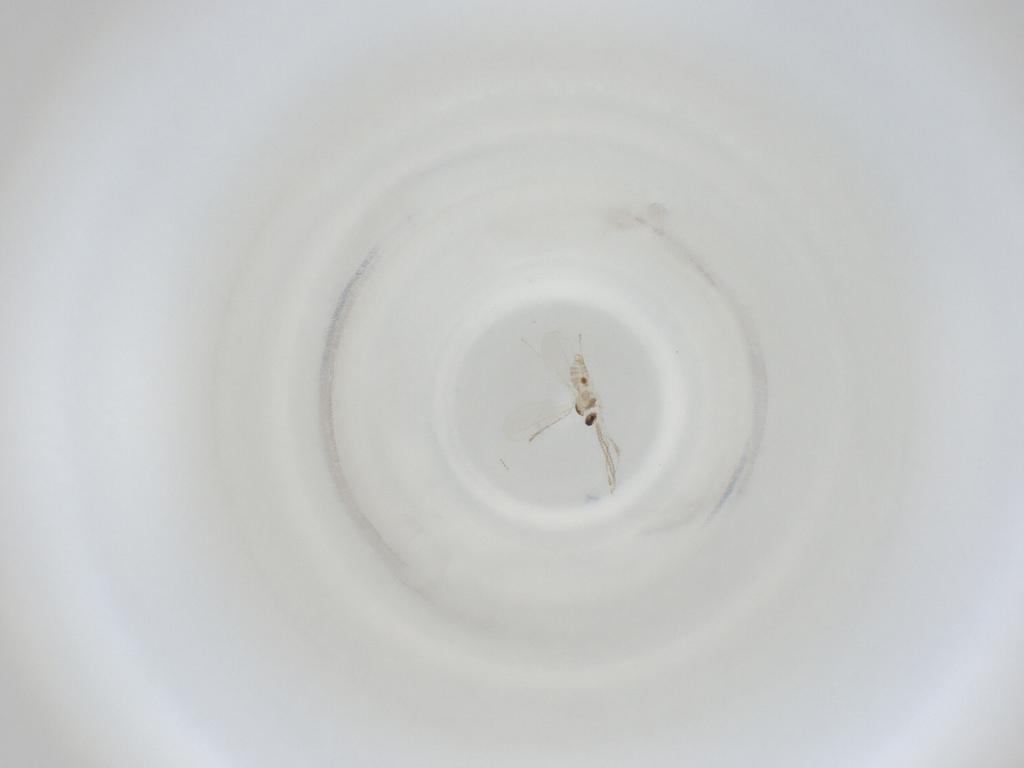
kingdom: Animalia
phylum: Arthropoda
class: Insecta
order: Diptera
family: Cecidomyiidae
